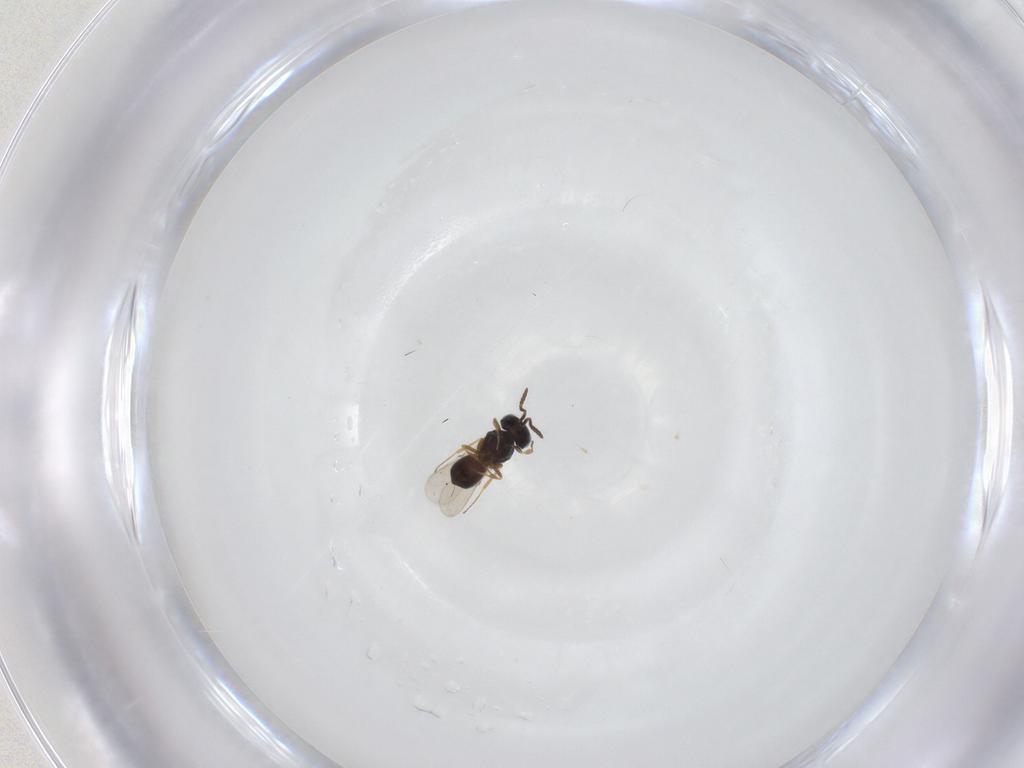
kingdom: Animalia
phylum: Arthropoda
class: Insecta
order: Hymenoptera
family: Scelionidae
